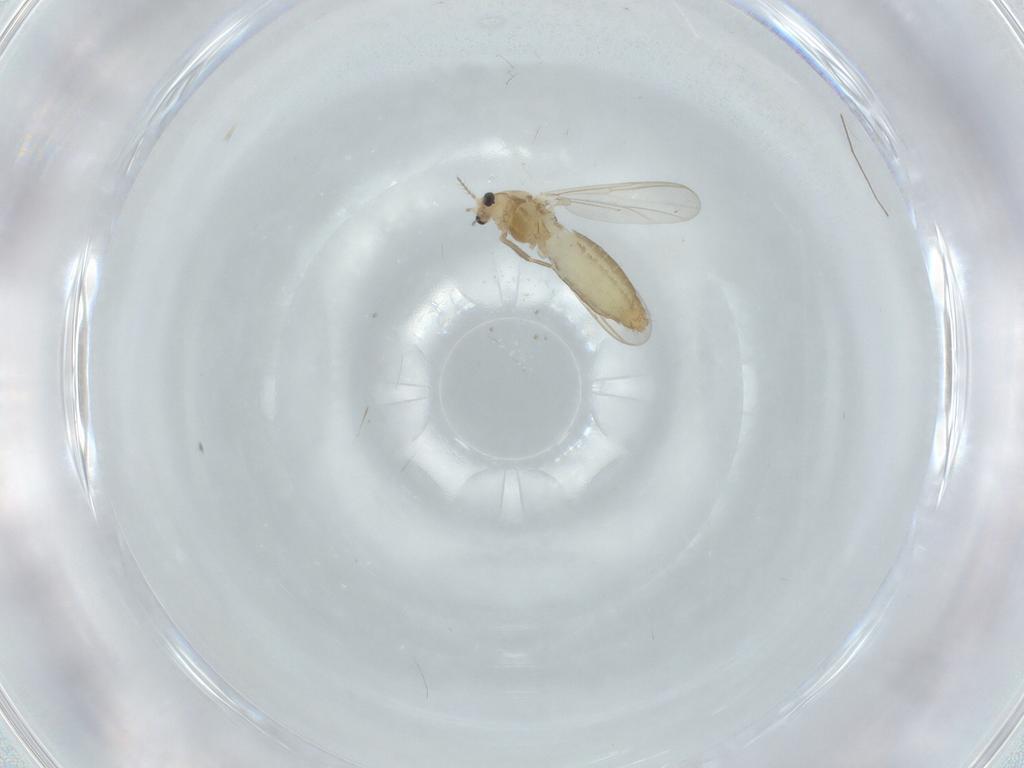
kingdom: Animalia
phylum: Arthropoda
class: Insecta
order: Diptera
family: Chironomidae
